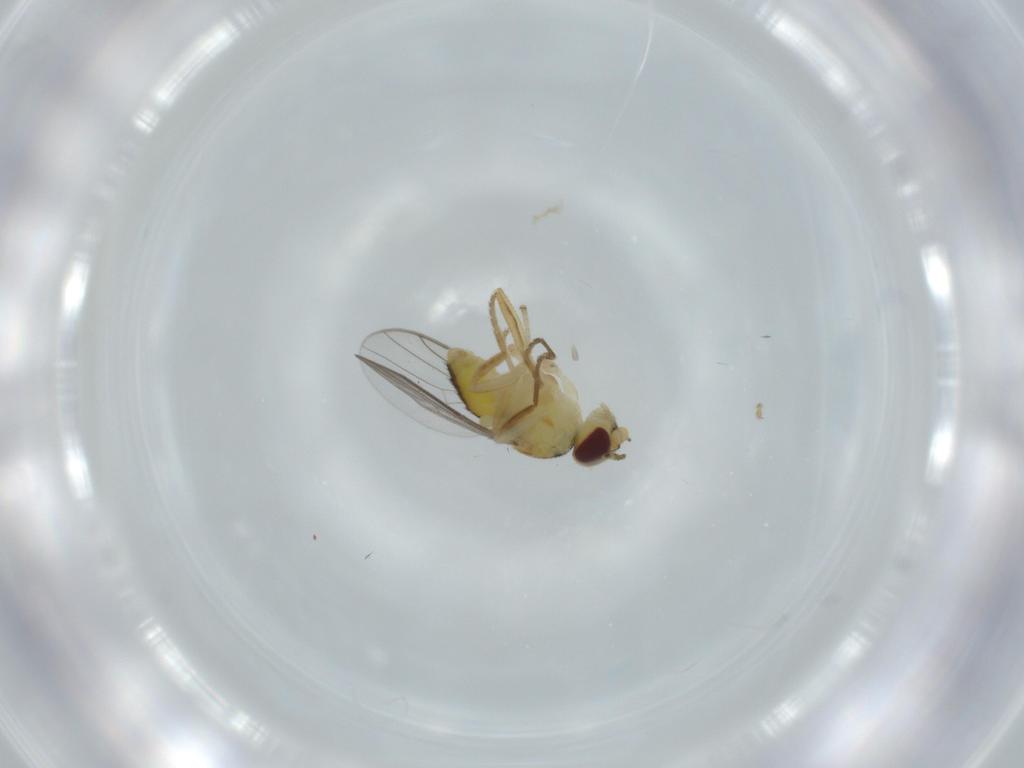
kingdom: Animalia
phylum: Arthropoda
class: Insecta
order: Diptera
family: Chloropidae
